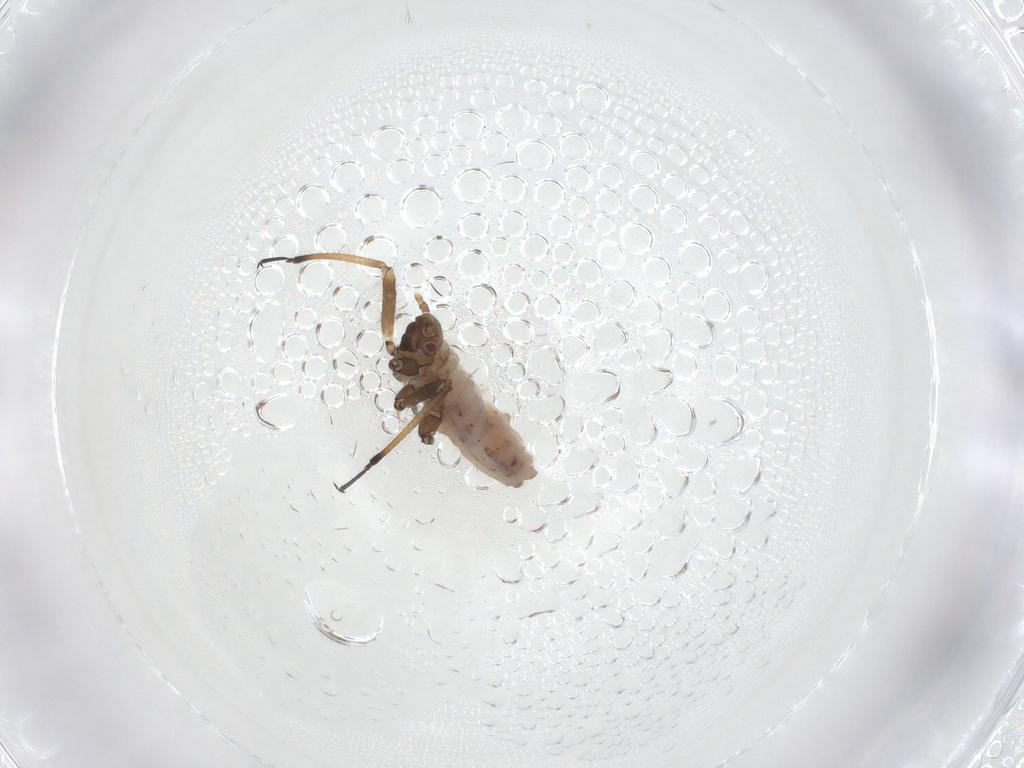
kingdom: Animalia
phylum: Arthropoda
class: Insecta
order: Hemiptera
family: Lachnidae
